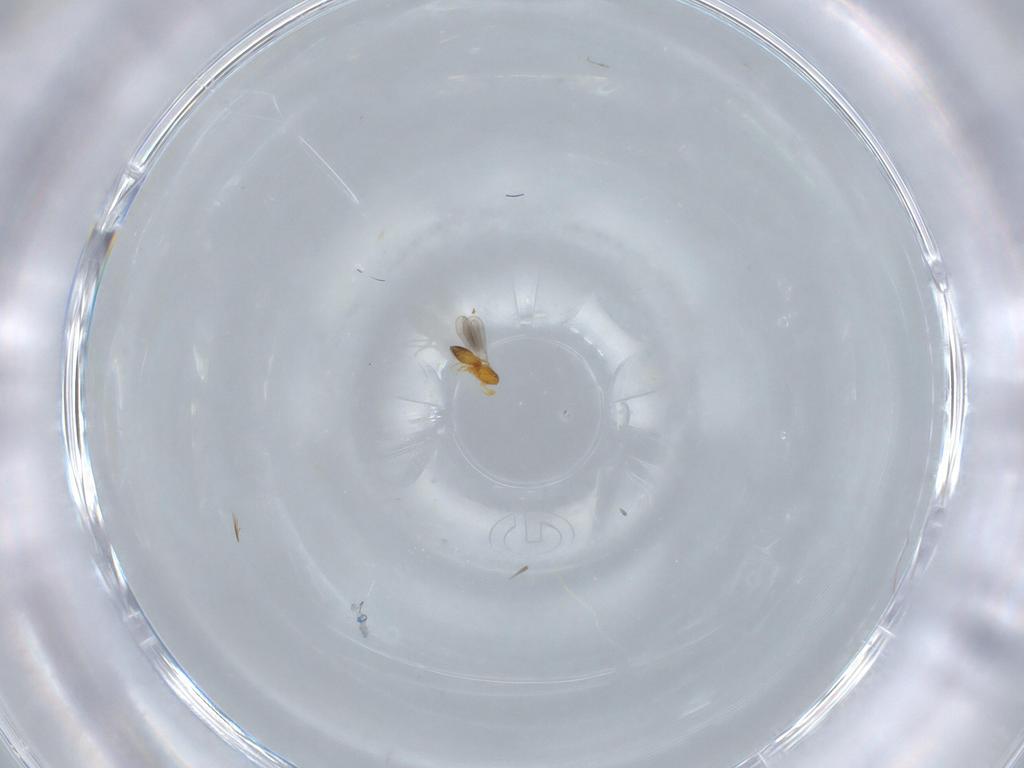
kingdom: Animalia
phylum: Arthropoda
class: Insecta
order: Hymenoptera
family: Platygastridae
